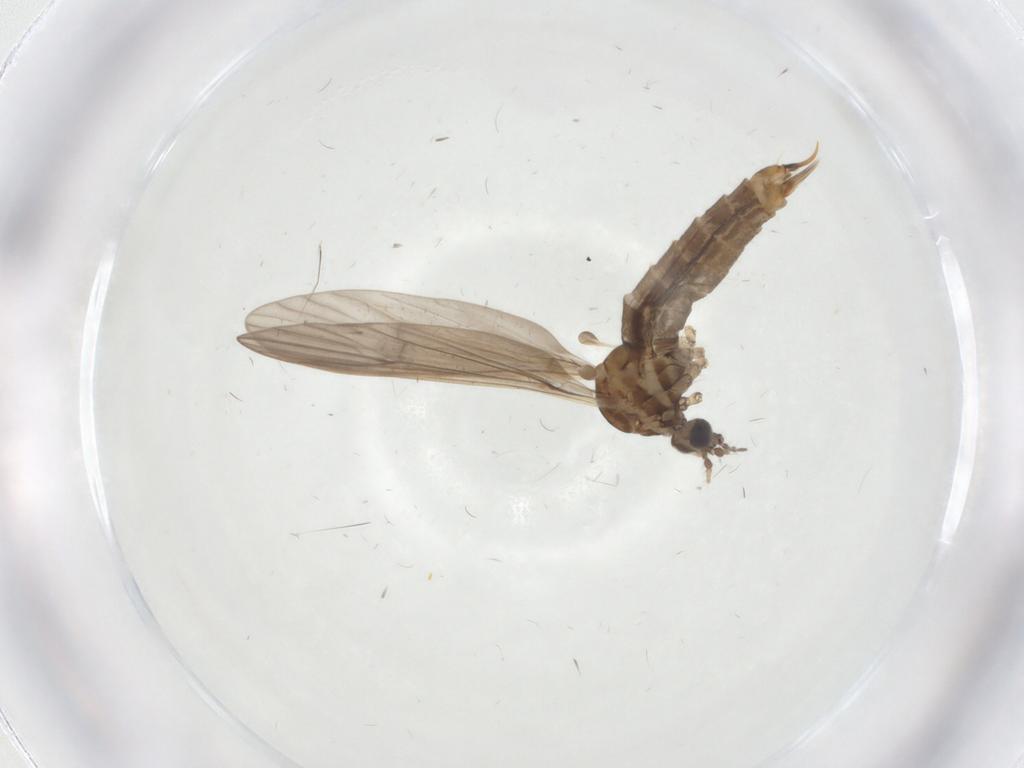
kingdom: Animalia
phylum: Arthropoda
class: Insecta
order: Diptera
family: Limoniidae
